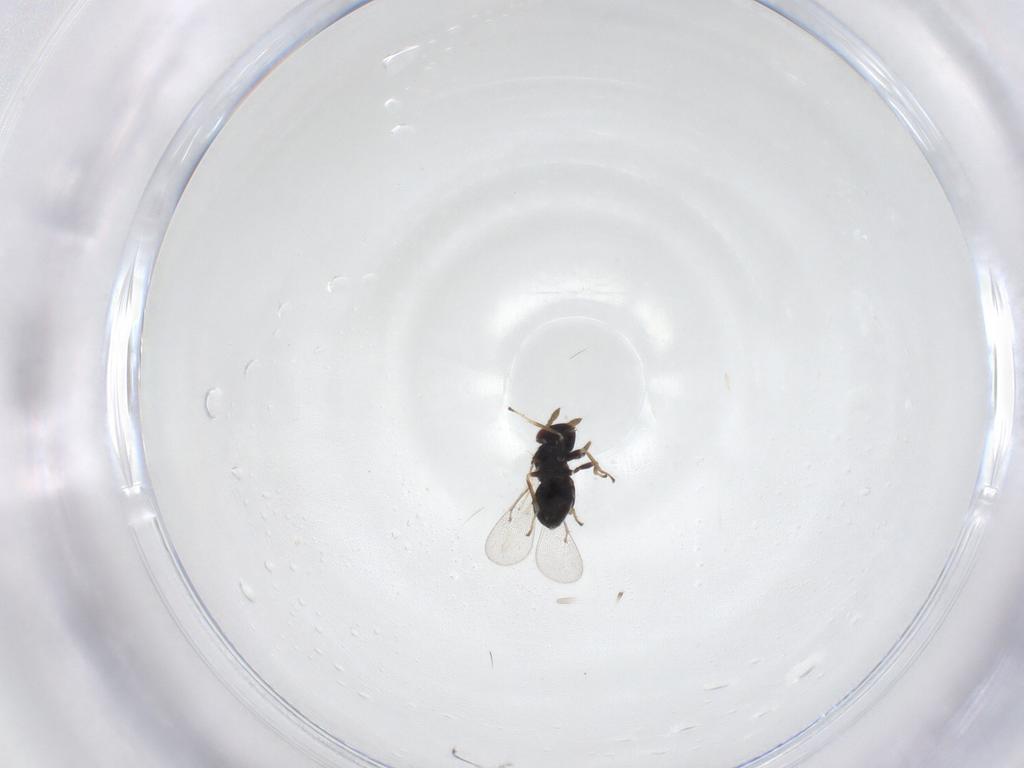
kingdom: Animalia
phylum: Arthropoda
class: Insecta
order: Hymenoptera
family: Eulophidae
